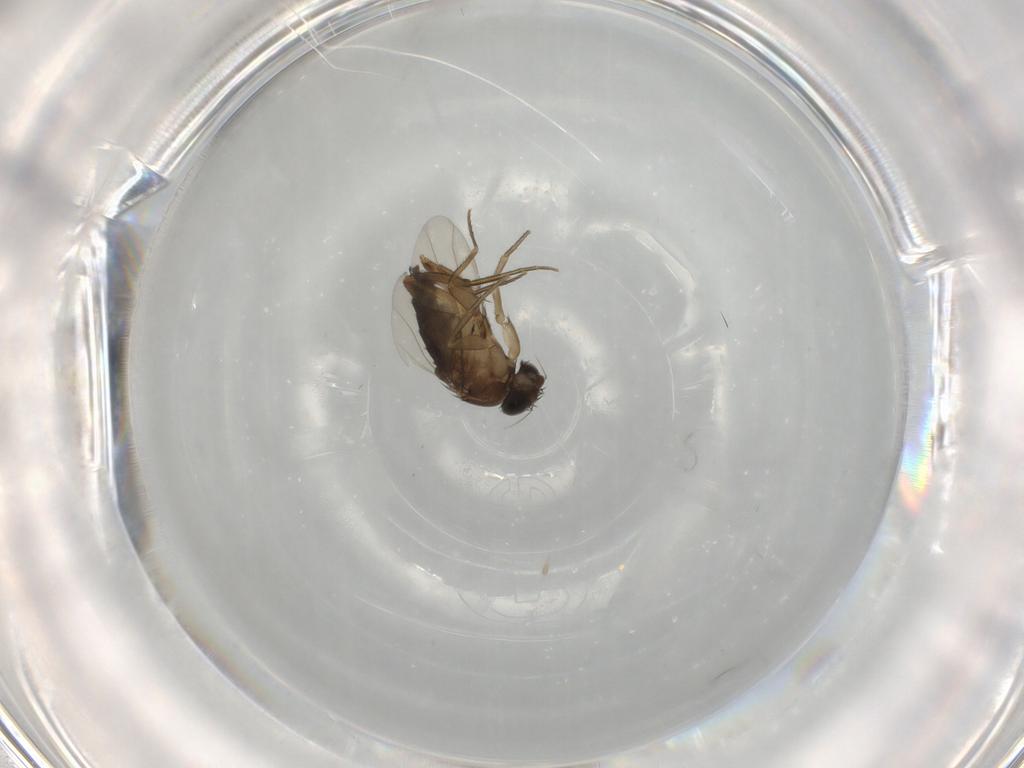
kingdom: Animalia
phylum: Arthropoda
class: Insecta
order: Diptera
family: Phoridae
